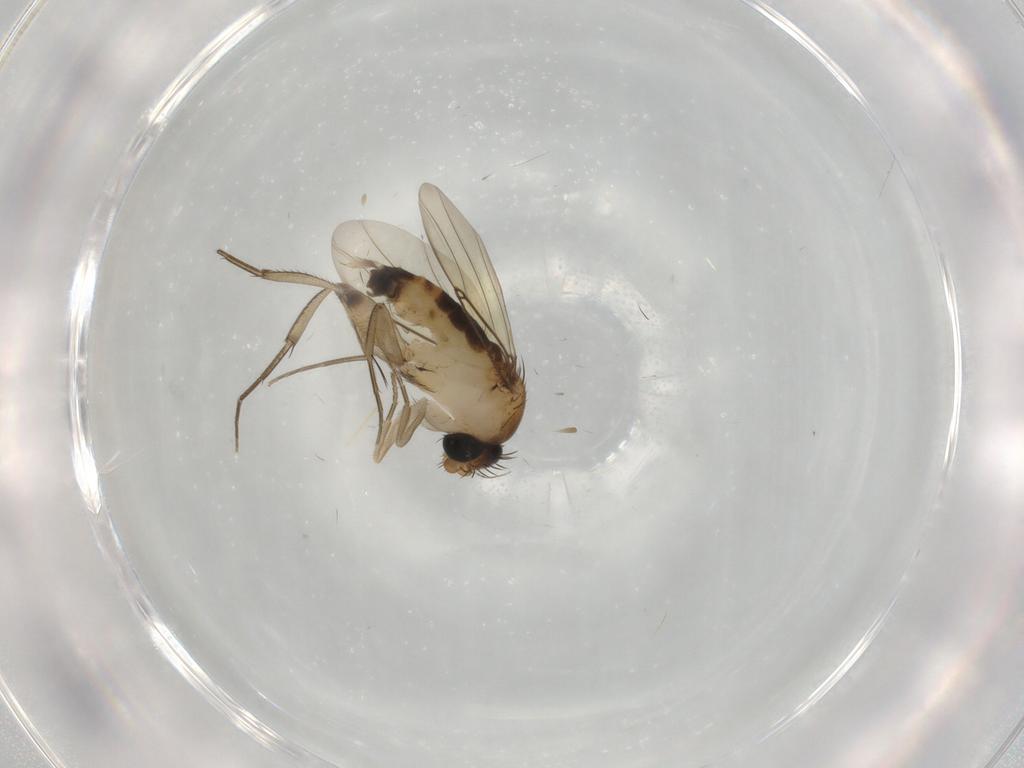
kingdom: Animalia
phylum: Arthropoda
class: Insecta
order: Diptera
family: Phoridae
